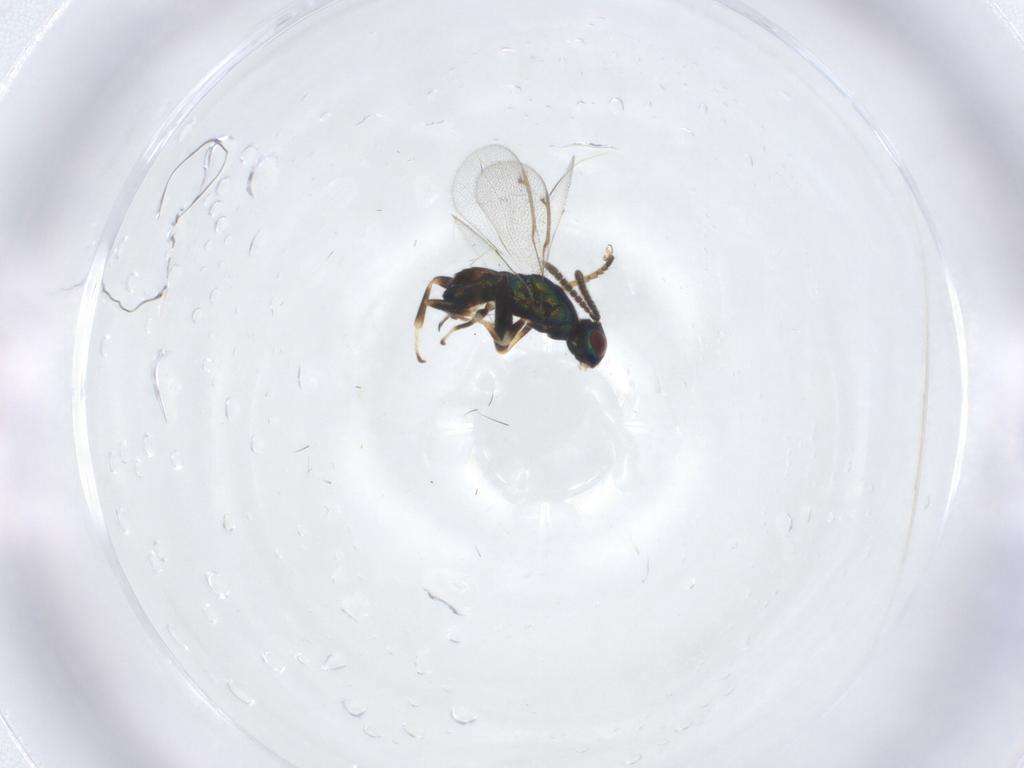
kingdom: Animalia
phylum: Arthropoda
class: Insecta
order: Hymenoptera
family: Torymidae
